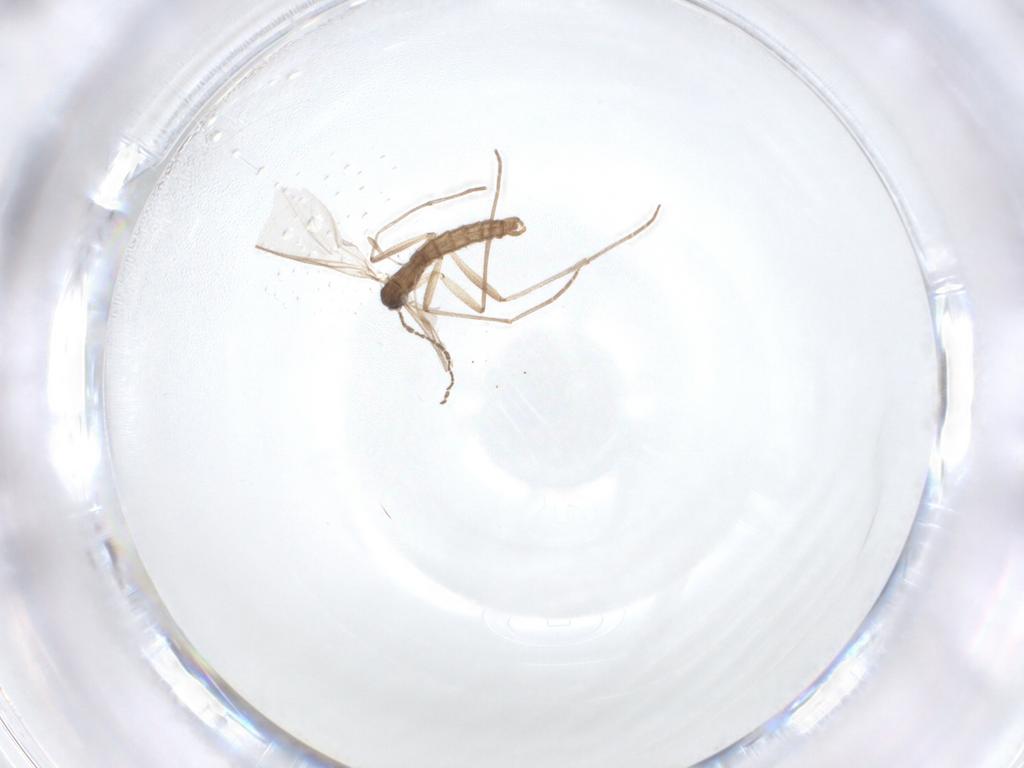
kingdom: Animalia
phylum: Arthropoda
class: Insecta
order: Diptera
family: Sciaridae
